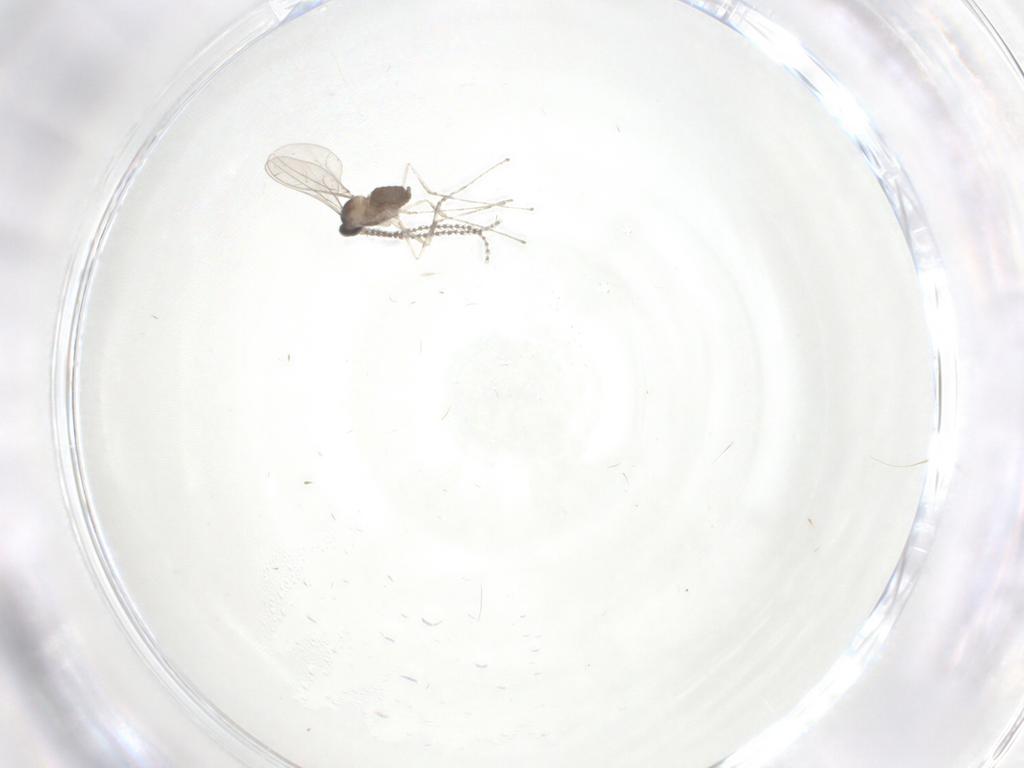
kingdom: Animalia
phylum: Arthropoda
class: Insecta
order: Diptera
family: Cecidomyiidae
